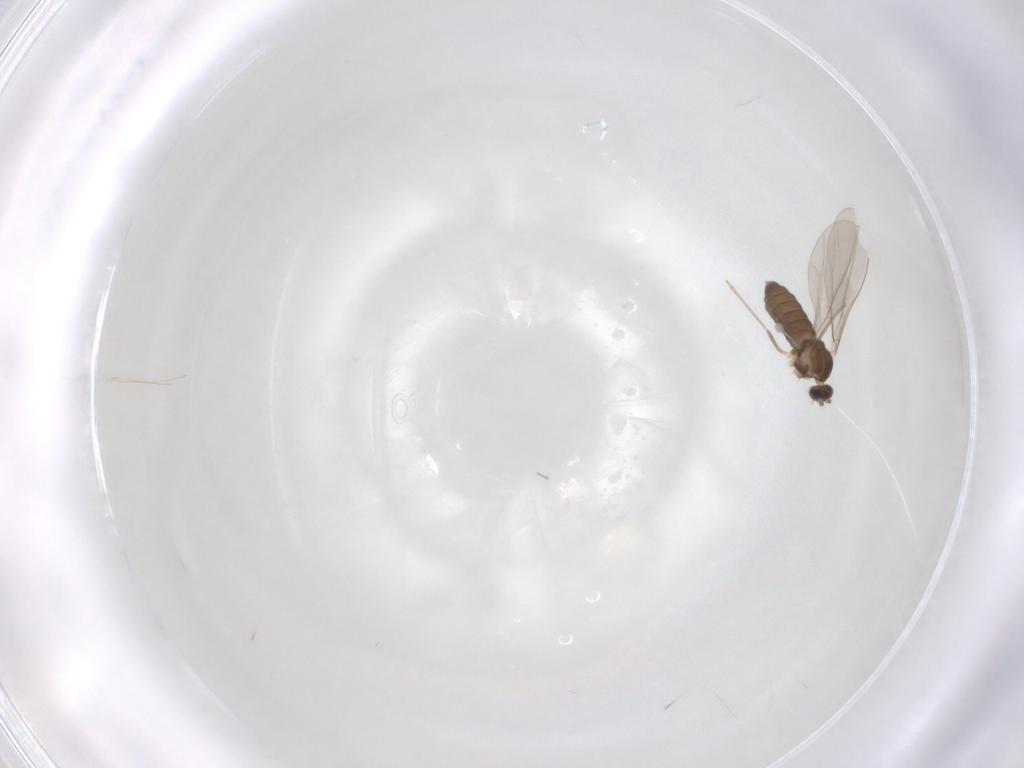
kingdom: Animalia
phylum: Arthropoda
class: Insecta
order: Diptera
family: Cecidomyiidae
